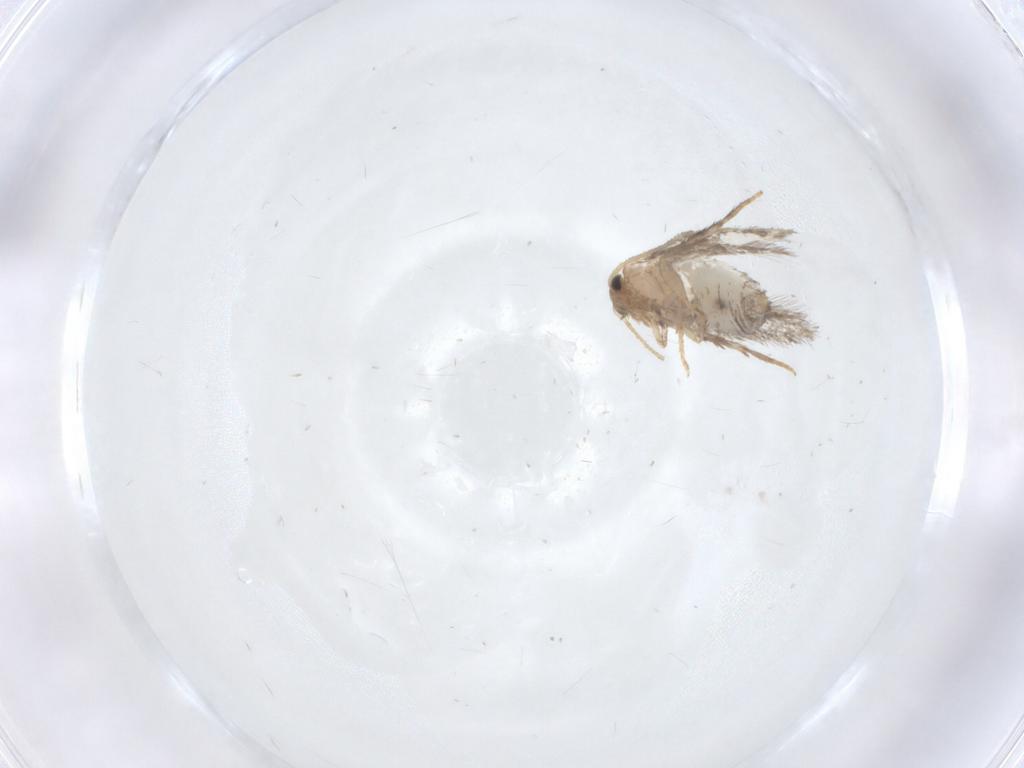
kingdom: Animalia
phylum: Arthropoda
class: Insecta
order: Lepidoptera
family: Nepticulidae
